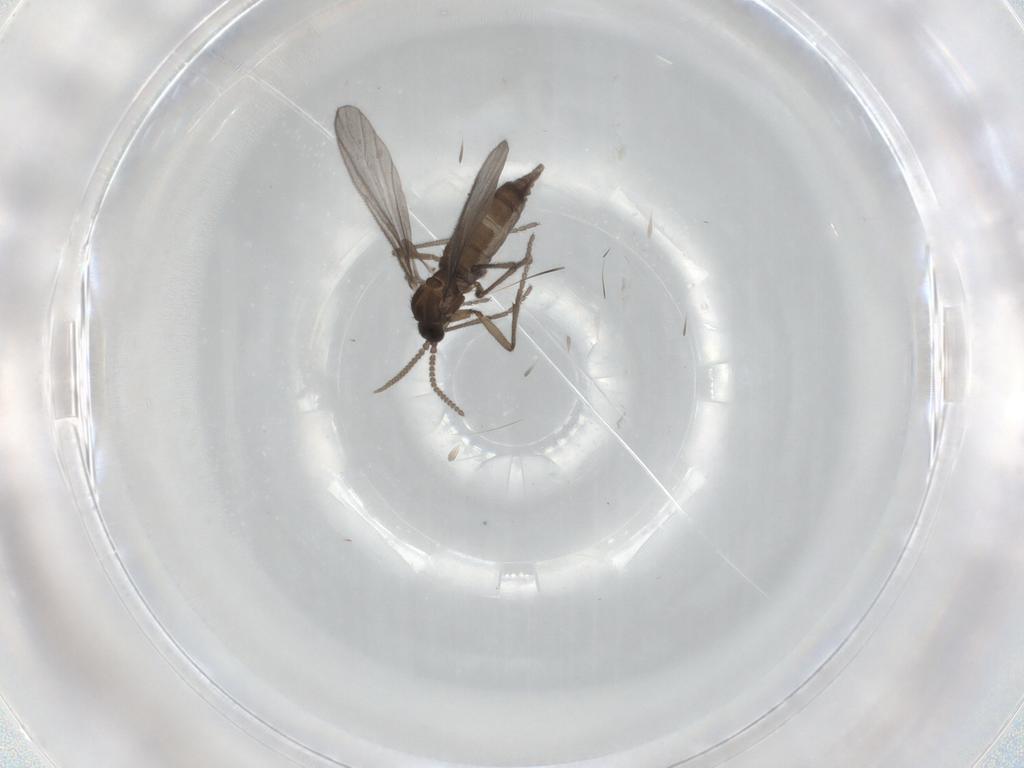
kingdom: Animalia
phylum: Arthropoda
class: Insecta
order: Diptera
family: Sciaridae
